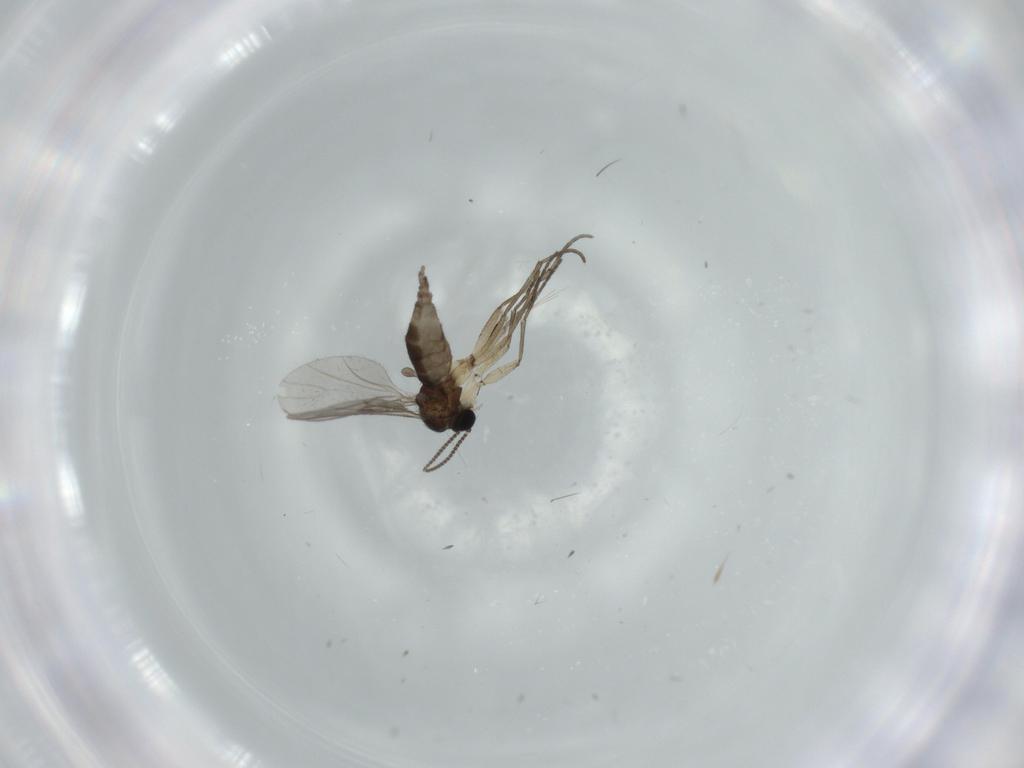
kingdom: Animalia
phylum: Arthropoda
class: Insecta
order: Diptera
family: Sciaridae
